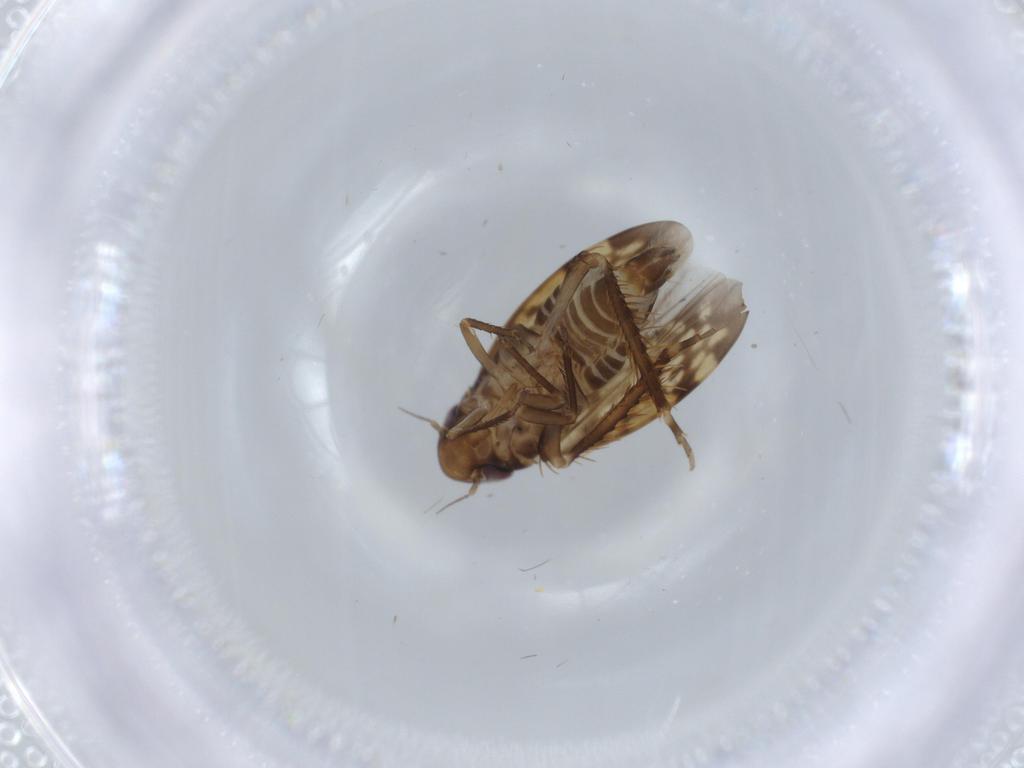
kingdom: Animalia
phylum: Arthropoda
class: Insecta
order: Hemiptera
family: Cicadellidae
